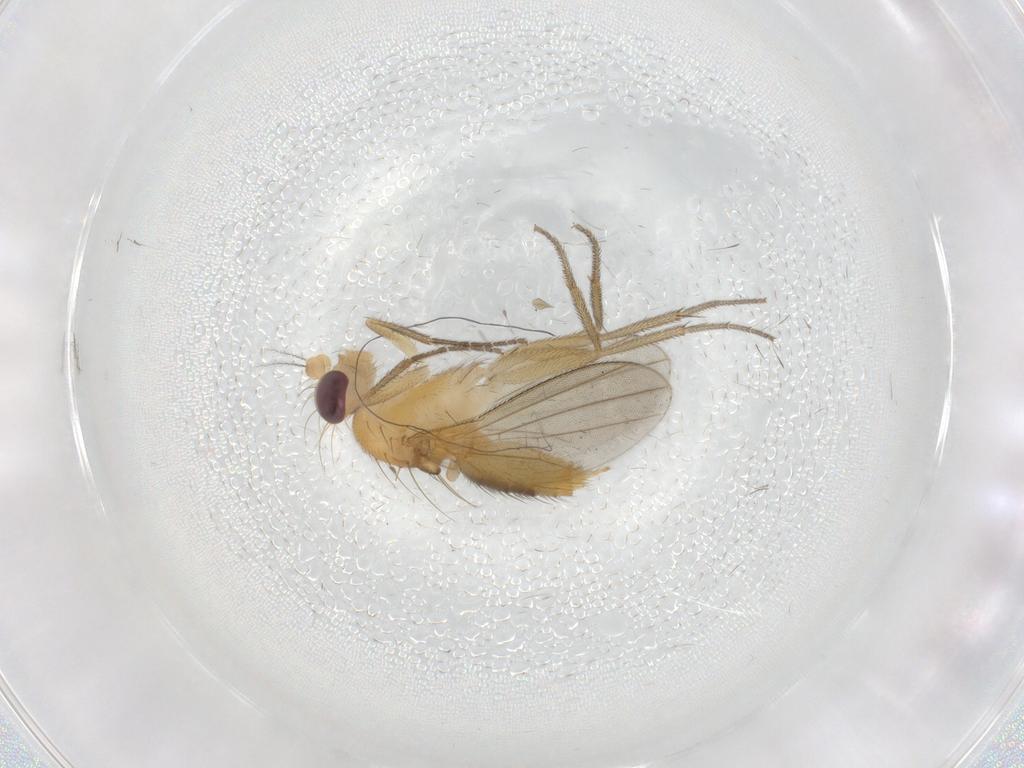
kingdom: Animalia
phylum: Arthropoda
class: Insecta
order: Diptera
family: Clusiidae
